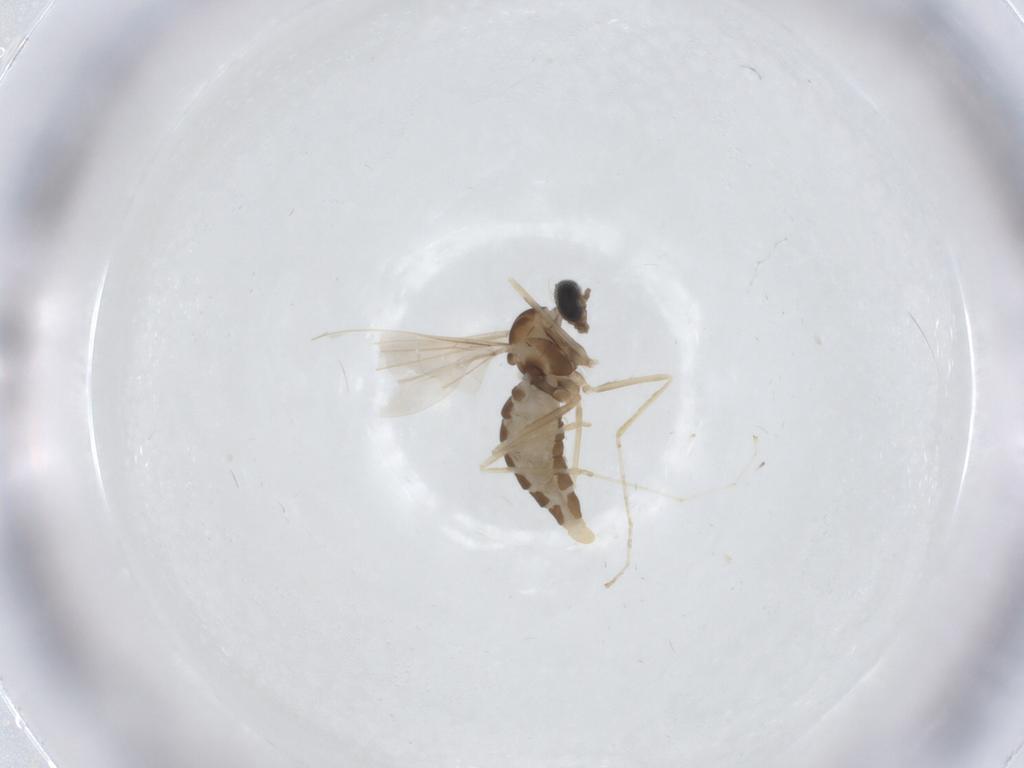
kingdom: Animalia
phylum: Arthropoda
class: Insecta
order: Diptera
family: Cecidomyiidae
